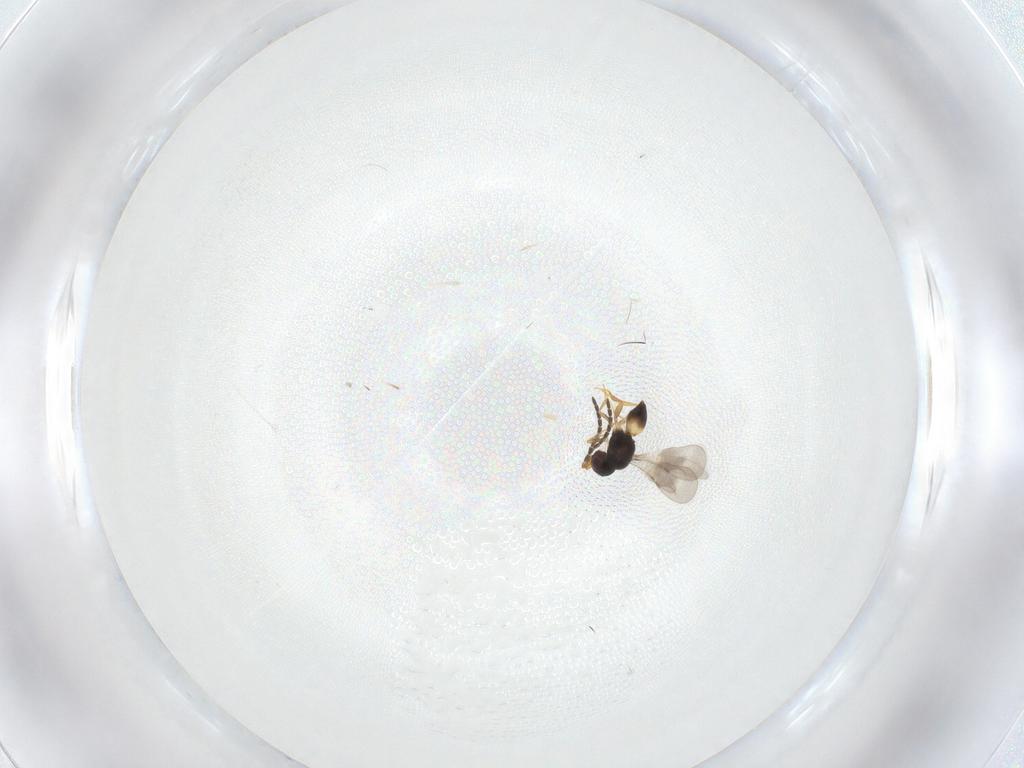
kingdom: Animalia
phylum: Arthropoda
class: Insecta
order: Hymenoptera
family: Ceraphronidae
